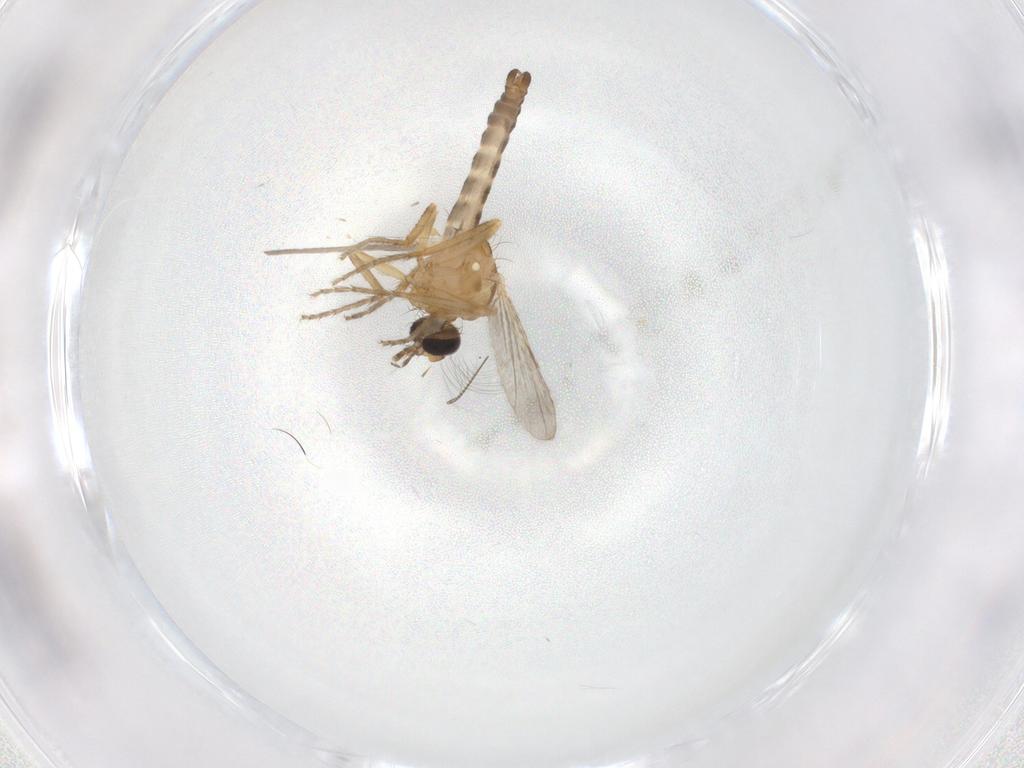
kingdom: Animalia
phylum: Arthropoda
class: Insecta
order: Diptera
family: Ceratopogonidae
